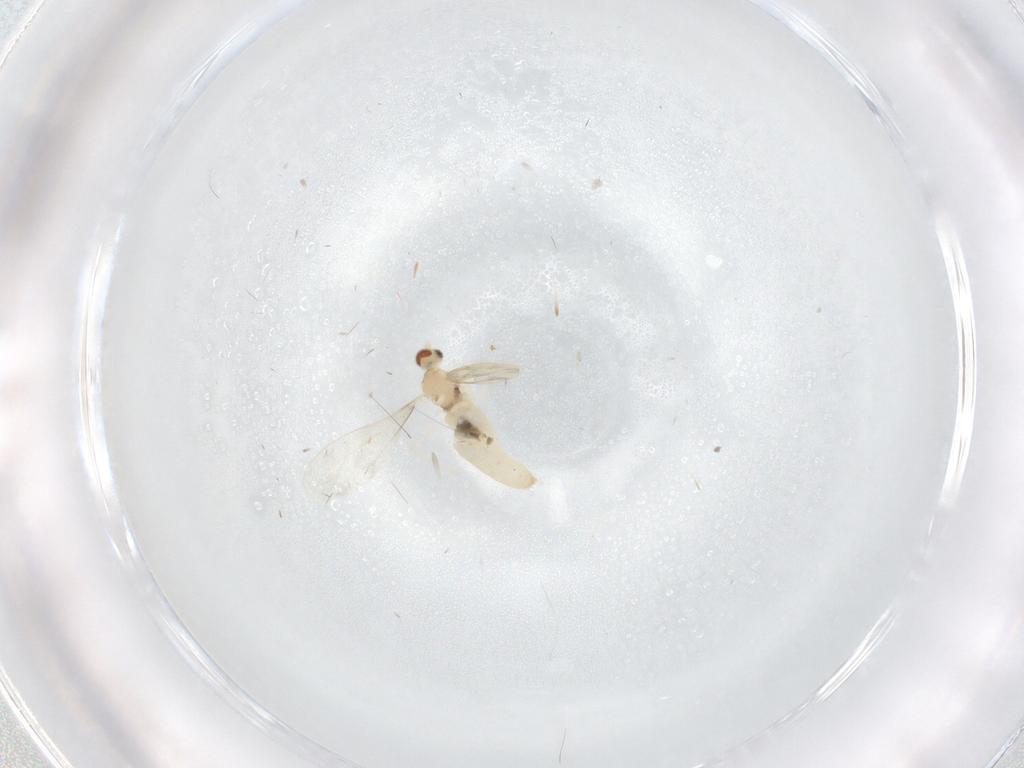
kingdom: Animalia
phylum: Arthropoda
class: Insecta
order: Diptera
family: Cecidomyiidae
